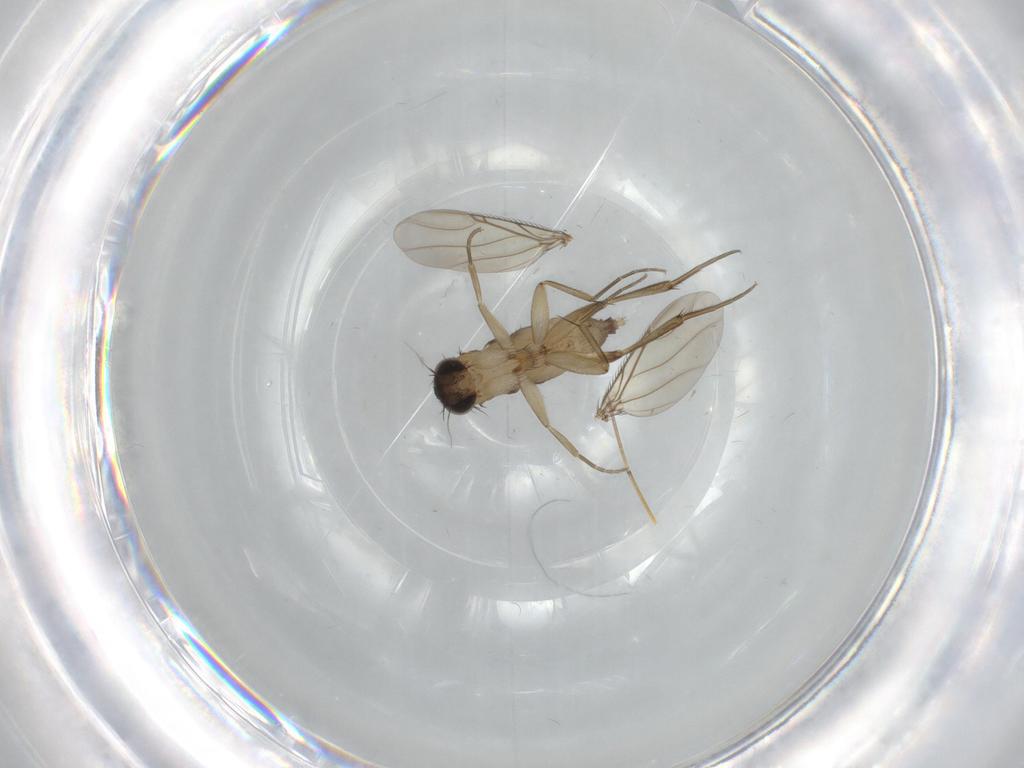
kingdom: Animalia
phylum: Arthropoda
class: Insecta
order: Diptera
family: Phoridae
